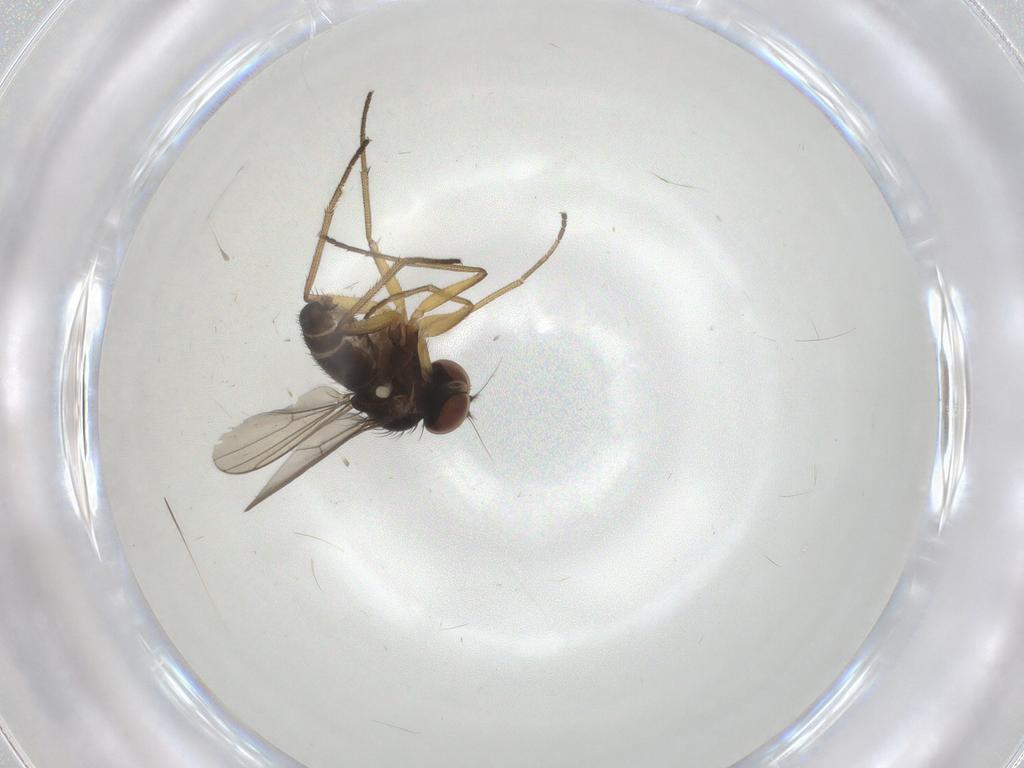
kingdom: Animalia
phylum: Arthropoda
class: Insecta
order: Diptera
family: Dolichopodidae
